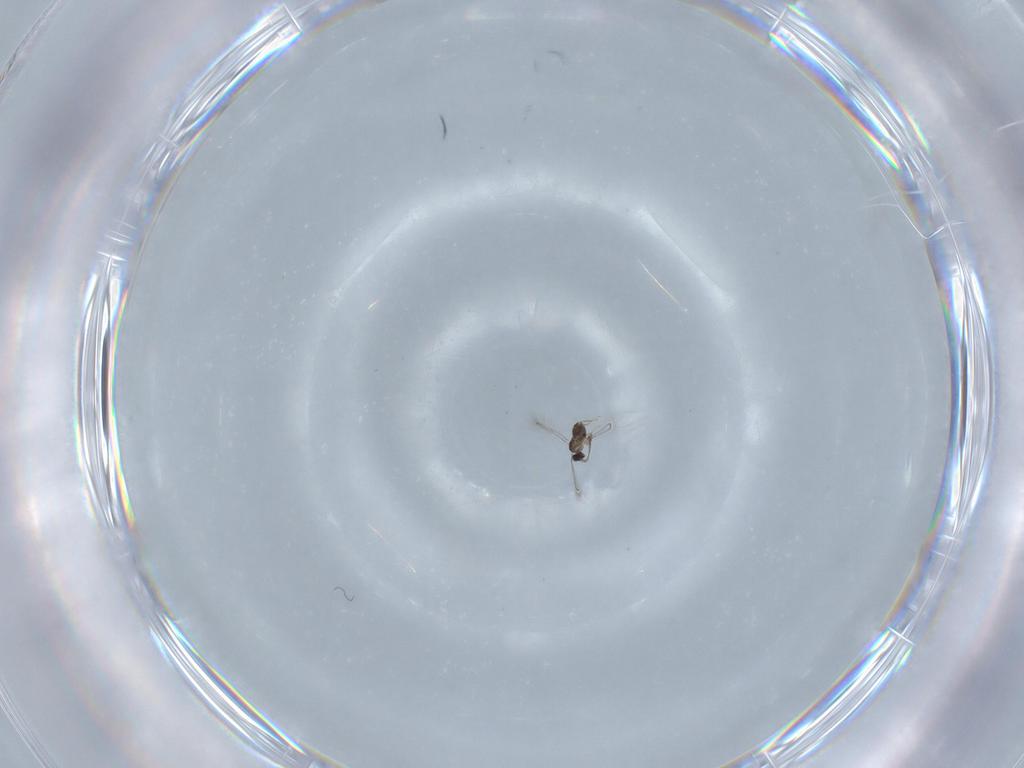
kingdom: Animalia
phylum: Arthropoda
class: Insecta
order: Hymenoptera
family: Mymaridae
